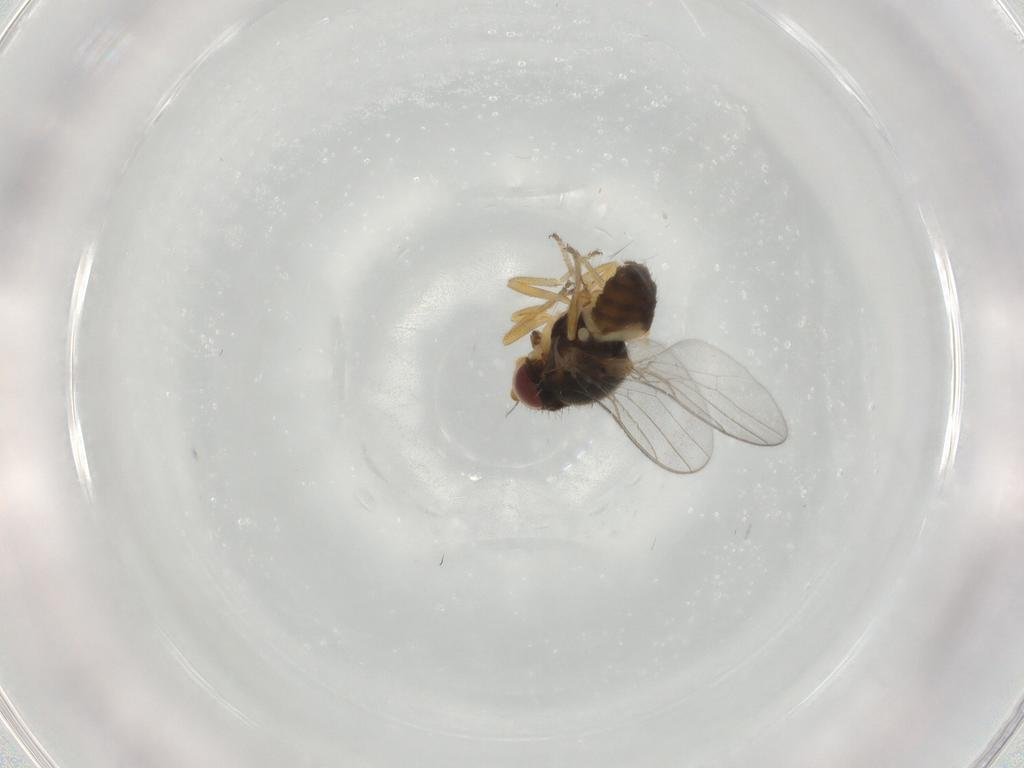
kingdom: Animalia
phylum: Arthropoda
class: Insecta
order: Diptera
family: Chloropidae
